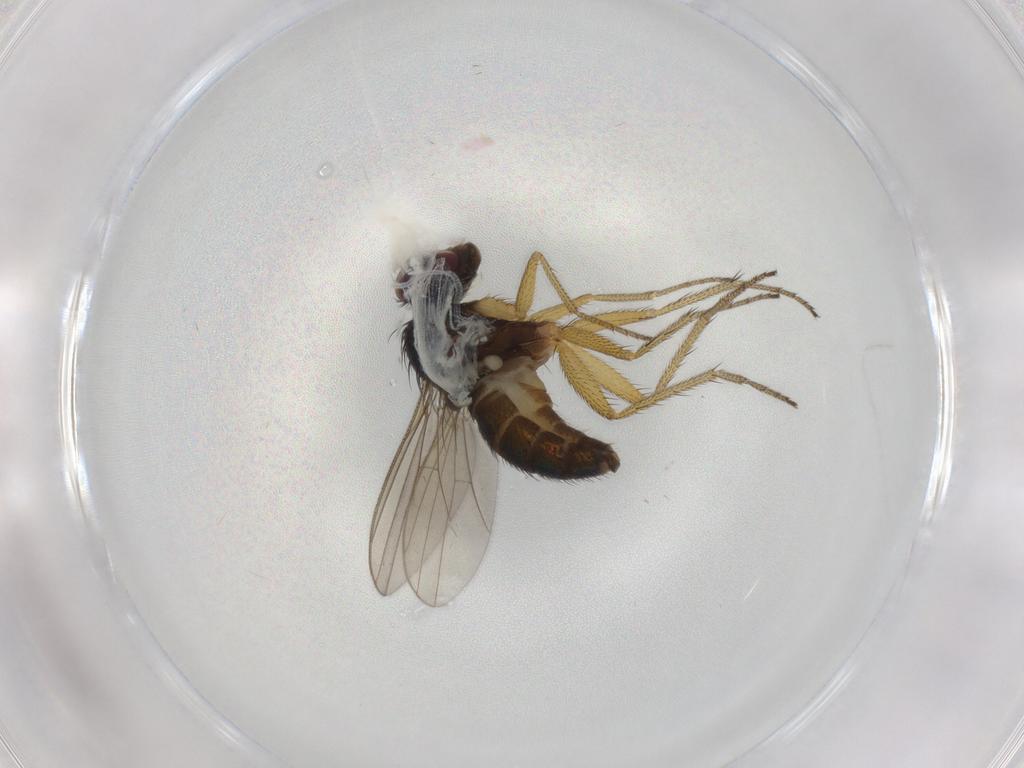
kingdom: Animalia
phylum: Arthropoda
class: Insecta
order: Diptera
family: Dolichopodidae
